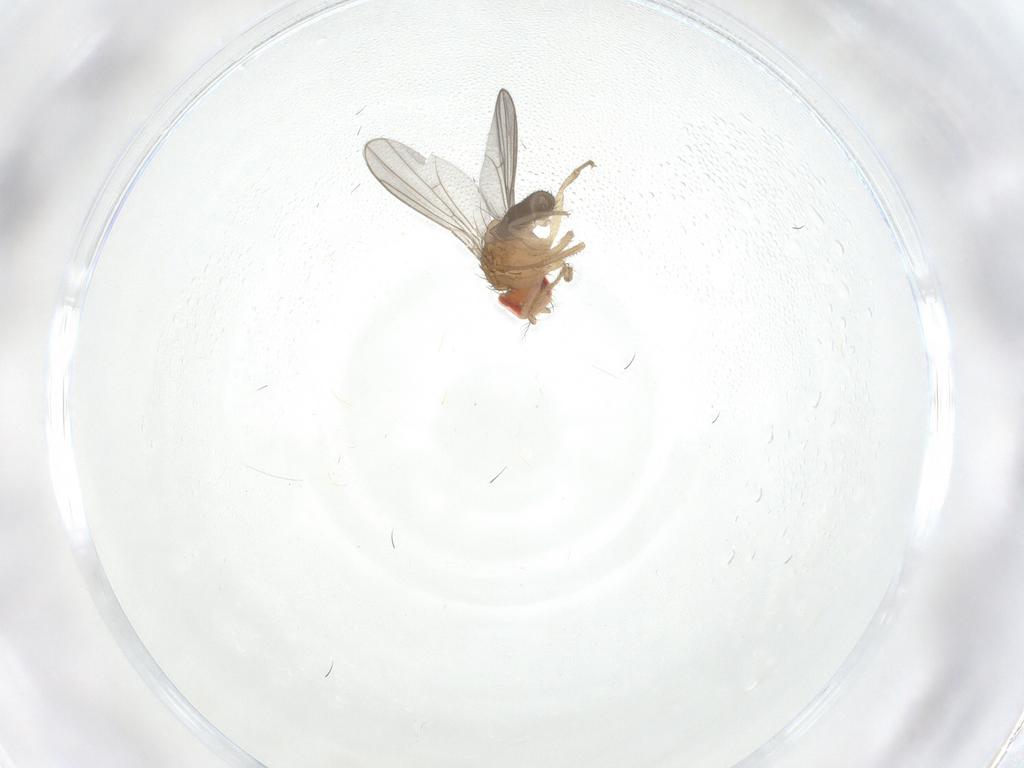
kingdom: Animalia
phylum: Arthropoda
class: Insecta
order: Diptera
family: Drosophilidae
